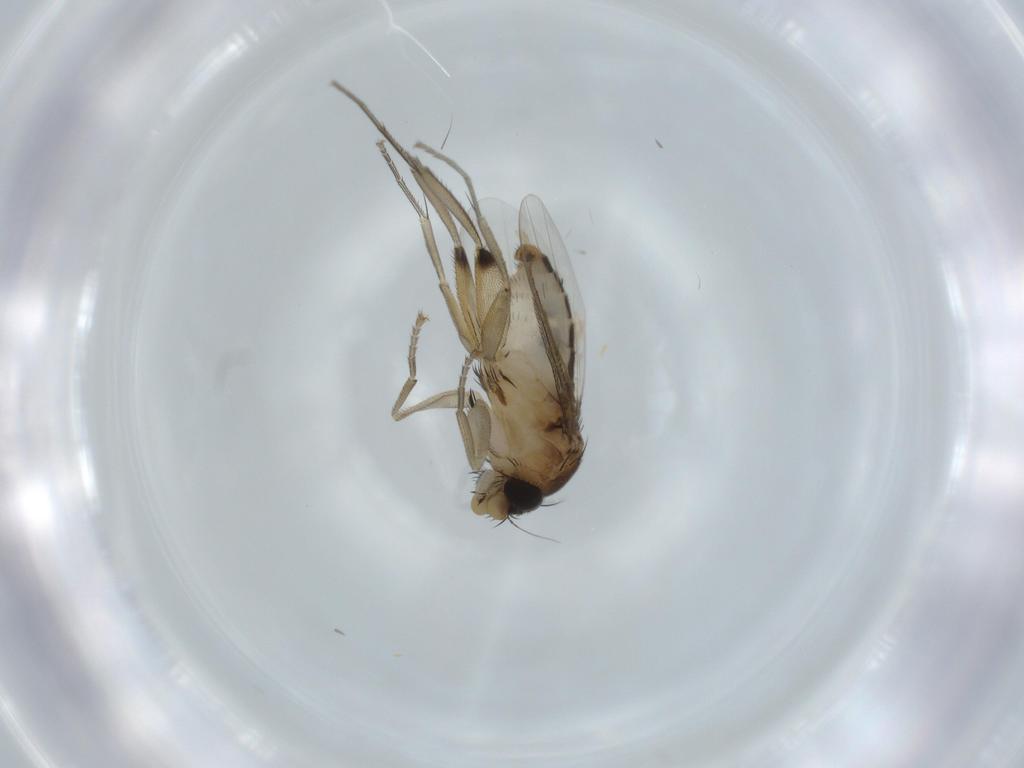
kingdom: Animalia
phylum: Arthropoda
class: Insecta
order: Diptera
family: Phoridae
